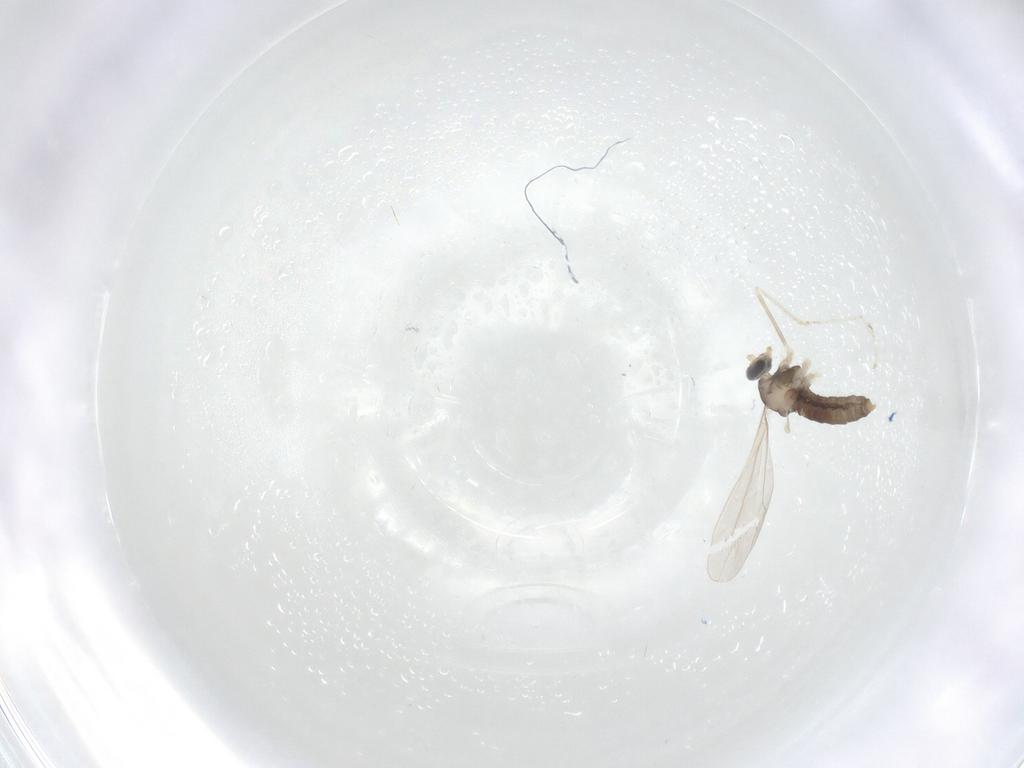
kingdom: Animalia
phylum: Arthropoda
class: Insecta
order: Diptera
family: Cecidomyiidae
